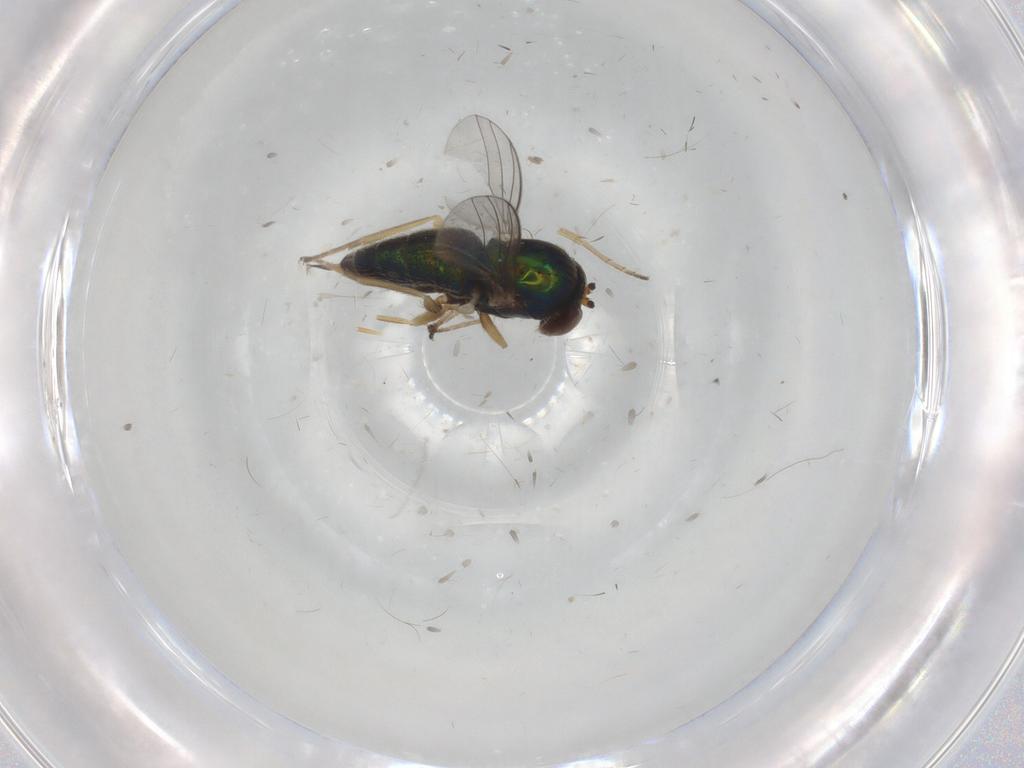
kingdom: Animalia
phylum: Arthropoda
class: Insecta
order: Diptera
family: Dolichopodidae
